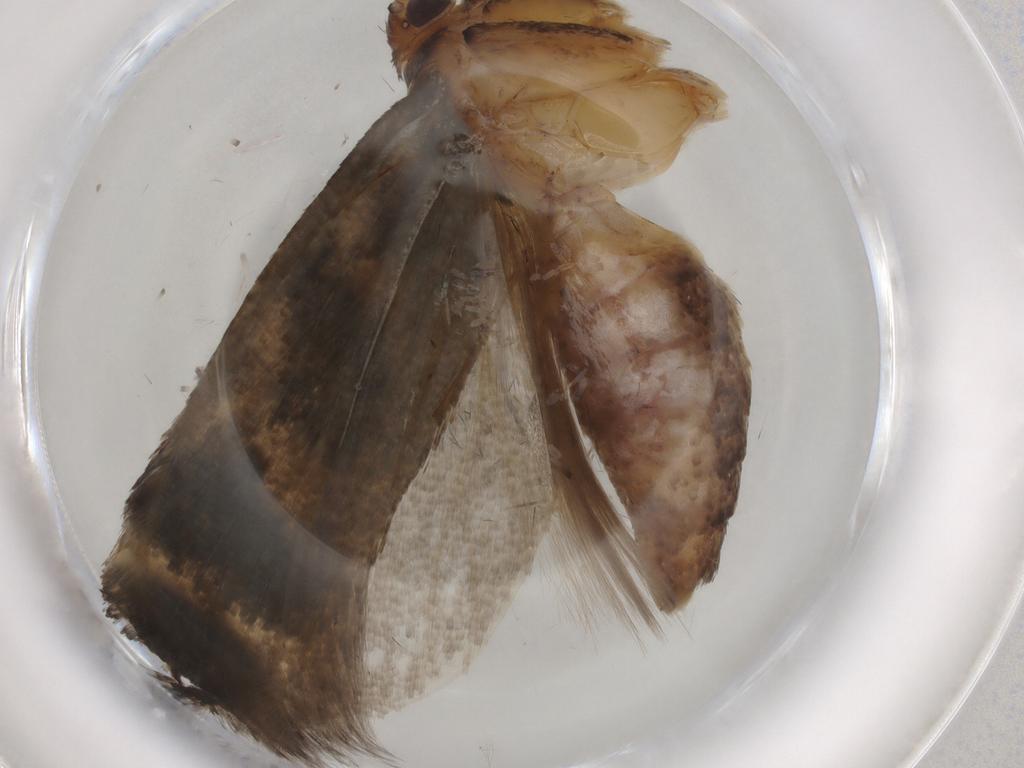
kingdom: Animalia
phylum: Arthropoda
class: Insecta
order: Lepidoptera
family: Gelechiidae
